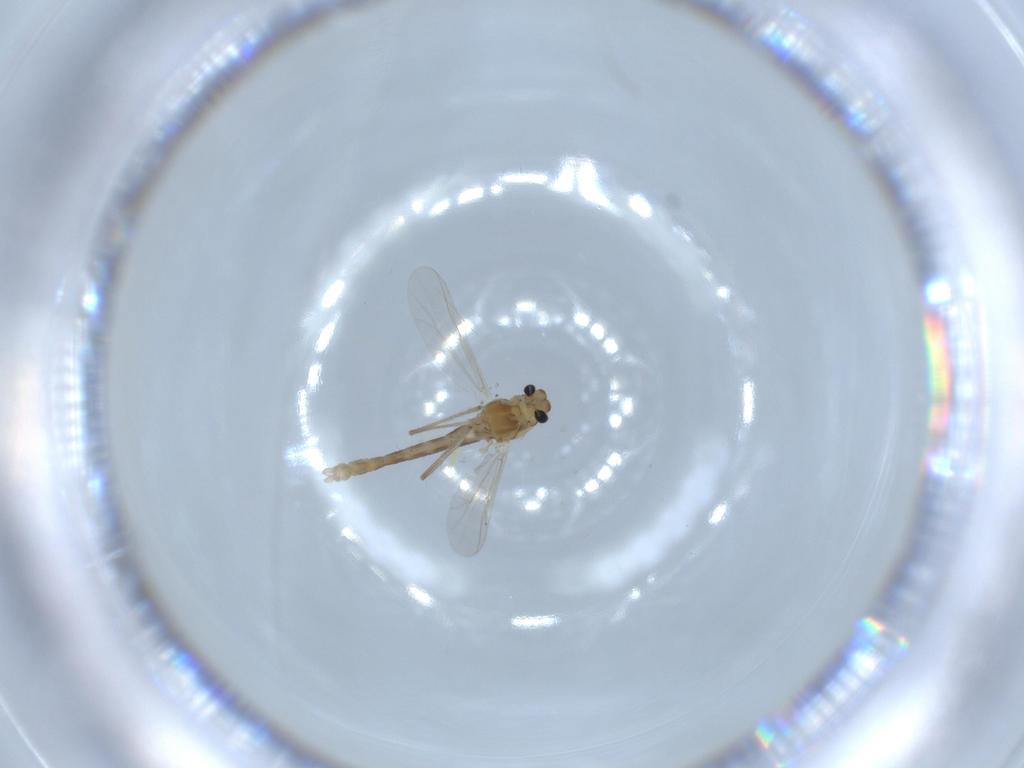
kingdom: Animalia
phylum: Arthropoda
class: Insecta
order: Diptera
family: Chironomidae
